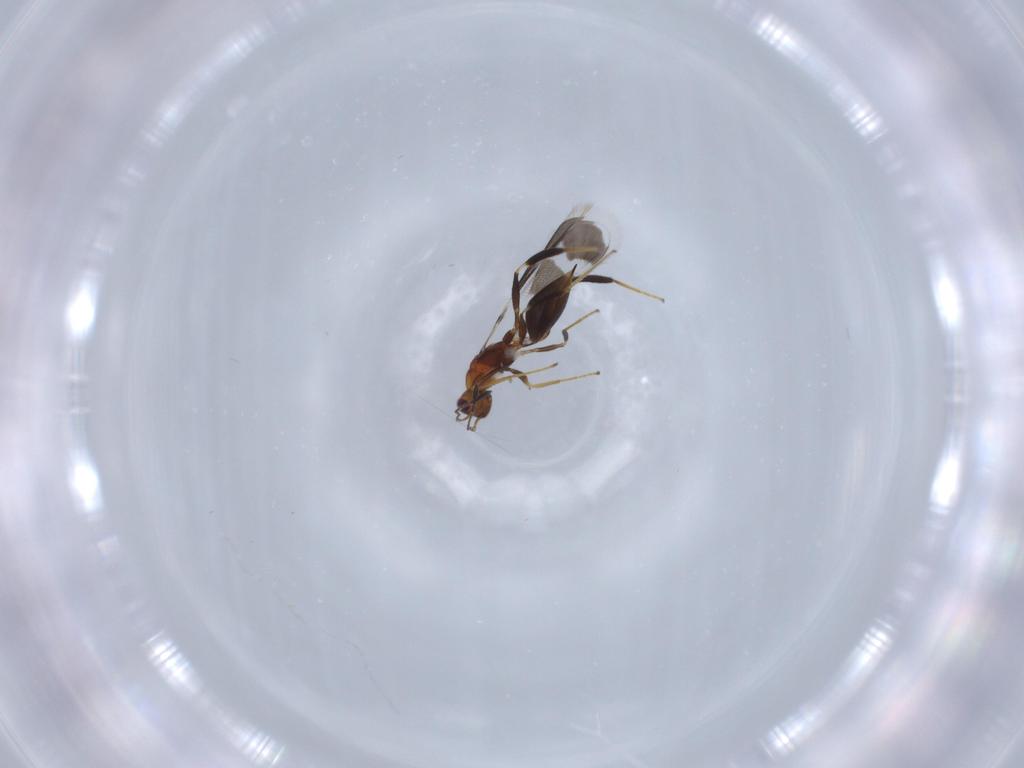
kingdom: Animalia
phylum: Arthropoda
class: Insecta
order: Hymenoptera
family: Mymaridae
